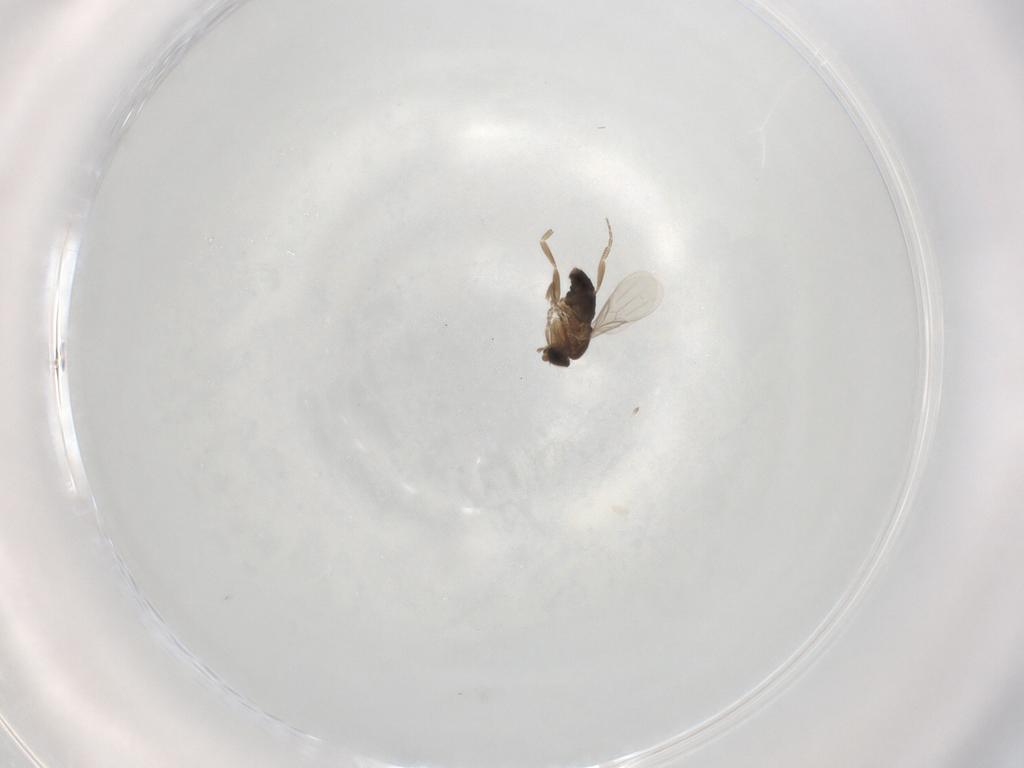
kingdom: Animalia
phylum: Arthropoda
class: Insecta
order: Diptera
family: Phoridae
